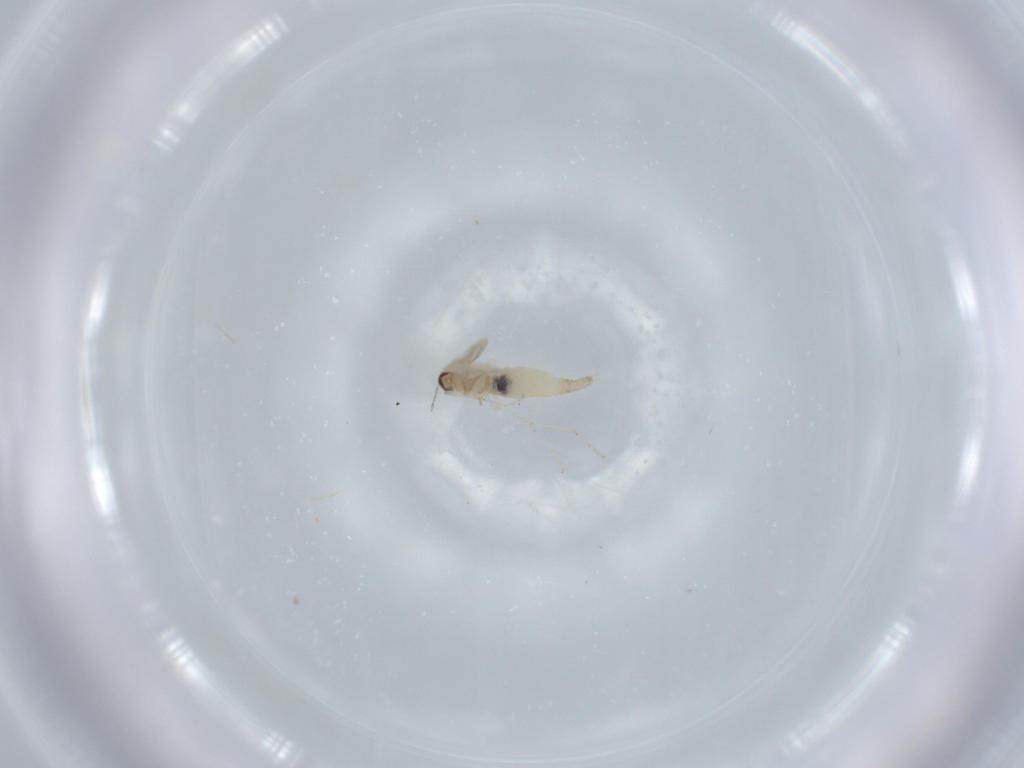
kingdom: Animalia
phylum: Arthropoda
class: Insecta
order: Diptera
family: Cecidomyiidae
